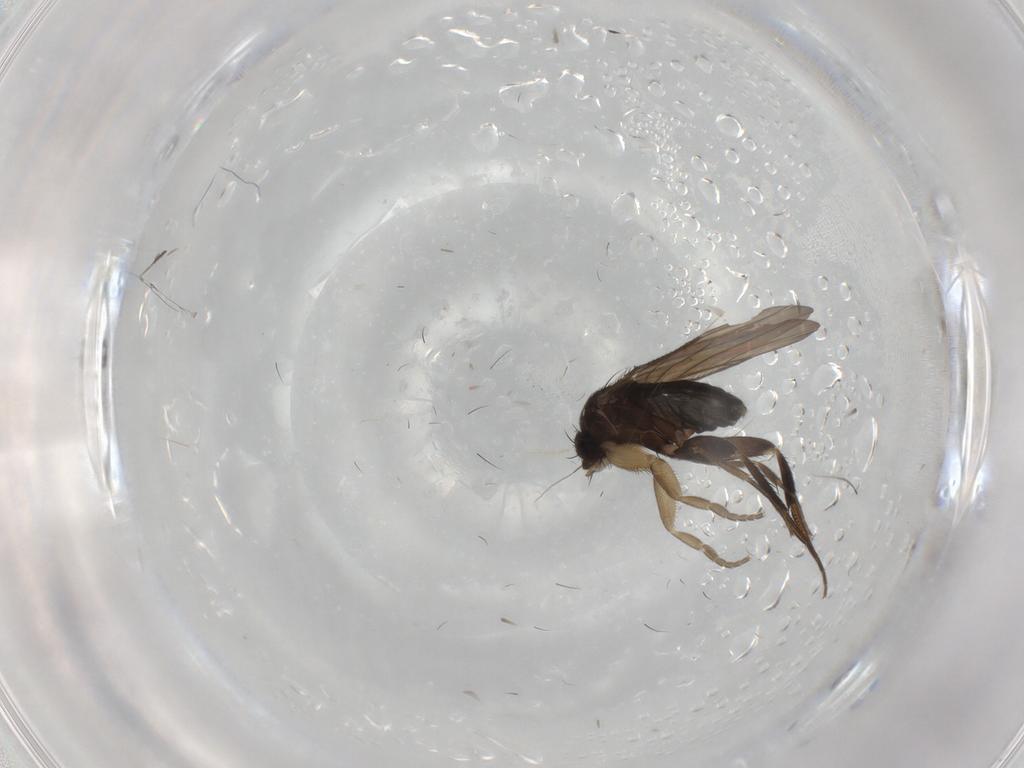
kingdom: Animalia
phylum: Arthropoda
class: Insecta
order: Diptera
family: Phoridae
